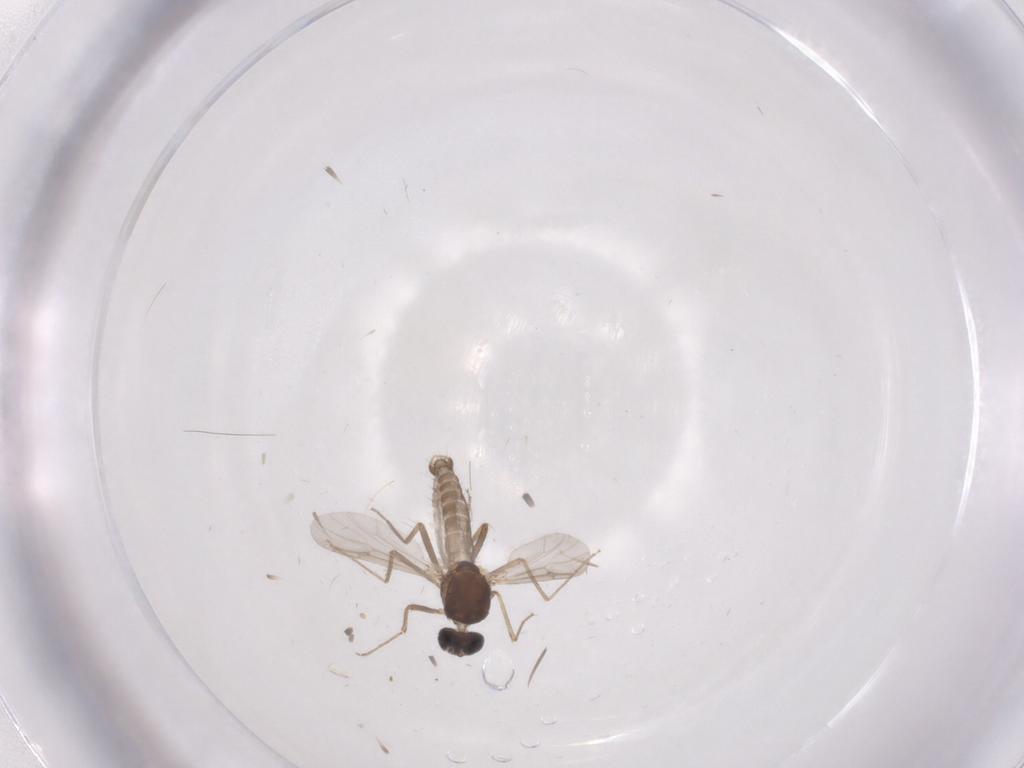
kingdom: Animalia
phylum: Arthropoda
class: Insecta
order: Diptera
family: Ceratopogonidae
